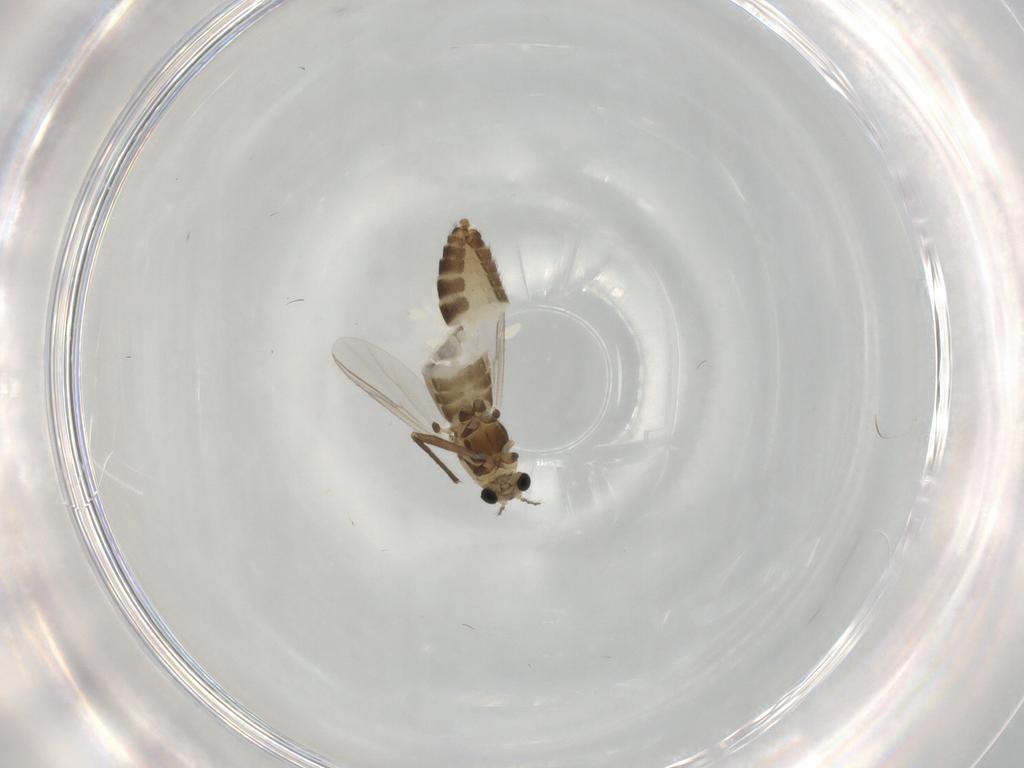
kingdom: Animalia
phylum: Arthropoda
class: Insecta
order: Diptera
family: Chironomidae
